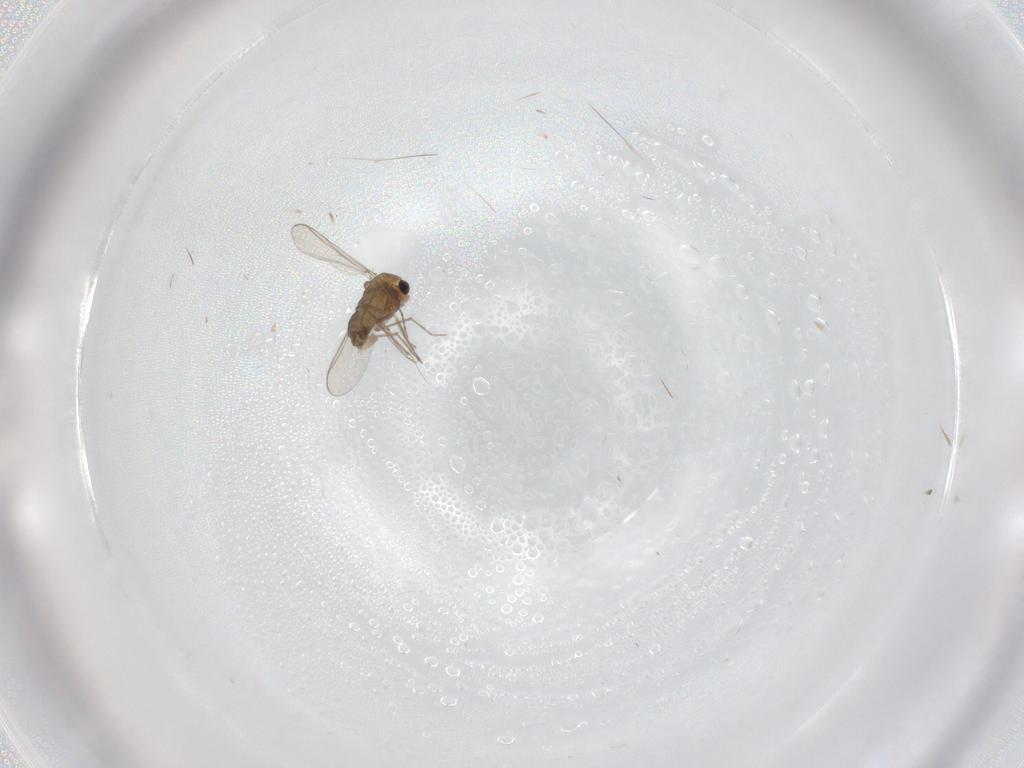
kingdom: Animalia
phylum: Arthropoda
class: Insecta
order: Diptera
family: Chironomidae
